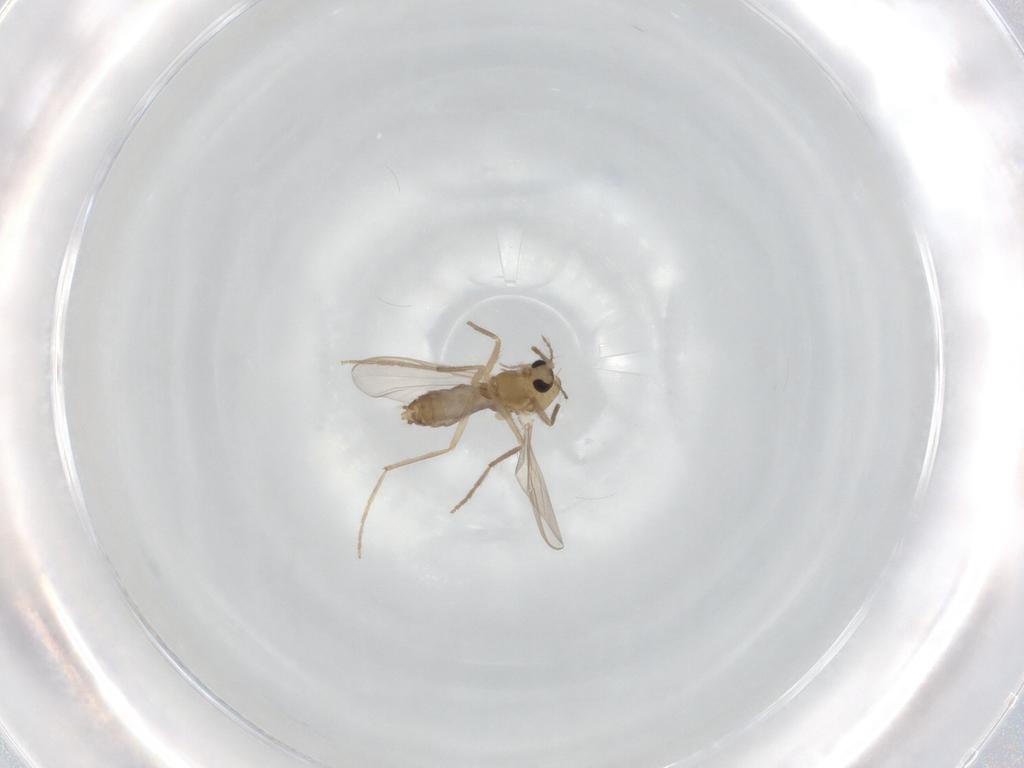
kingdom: Animalia
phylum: Arthropoda
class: Insecta
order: Diptera
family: Chironomidae
